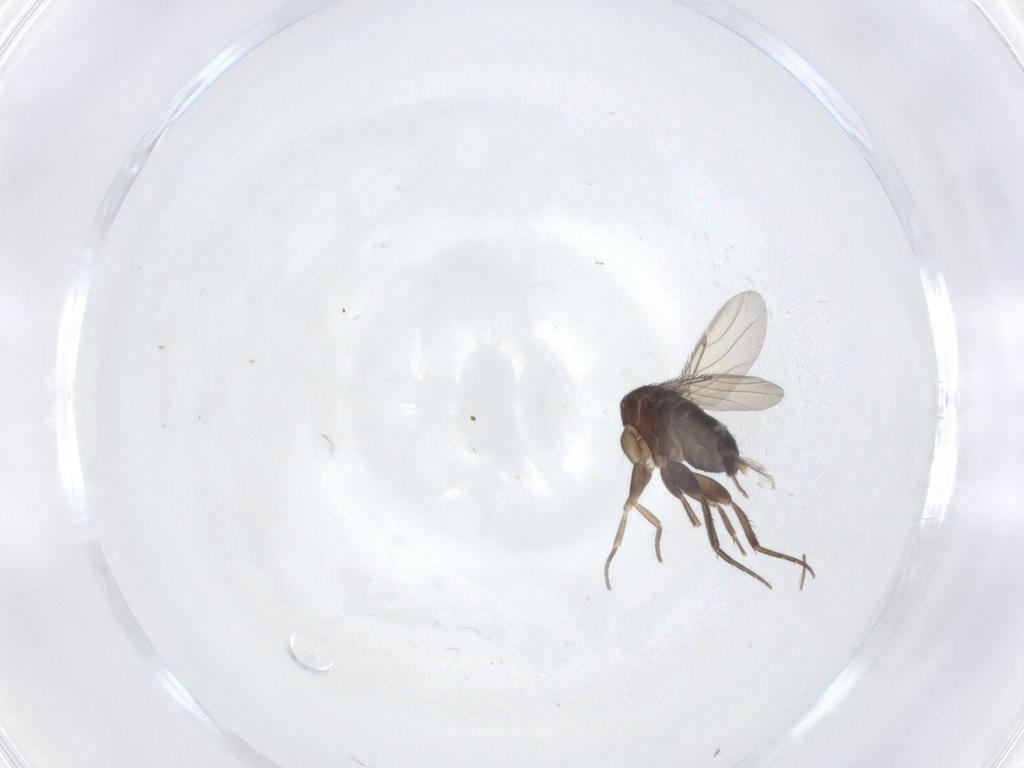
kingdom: Animalia
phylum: Arthropoda
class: Insecta
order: Diptera
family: Phoridae
